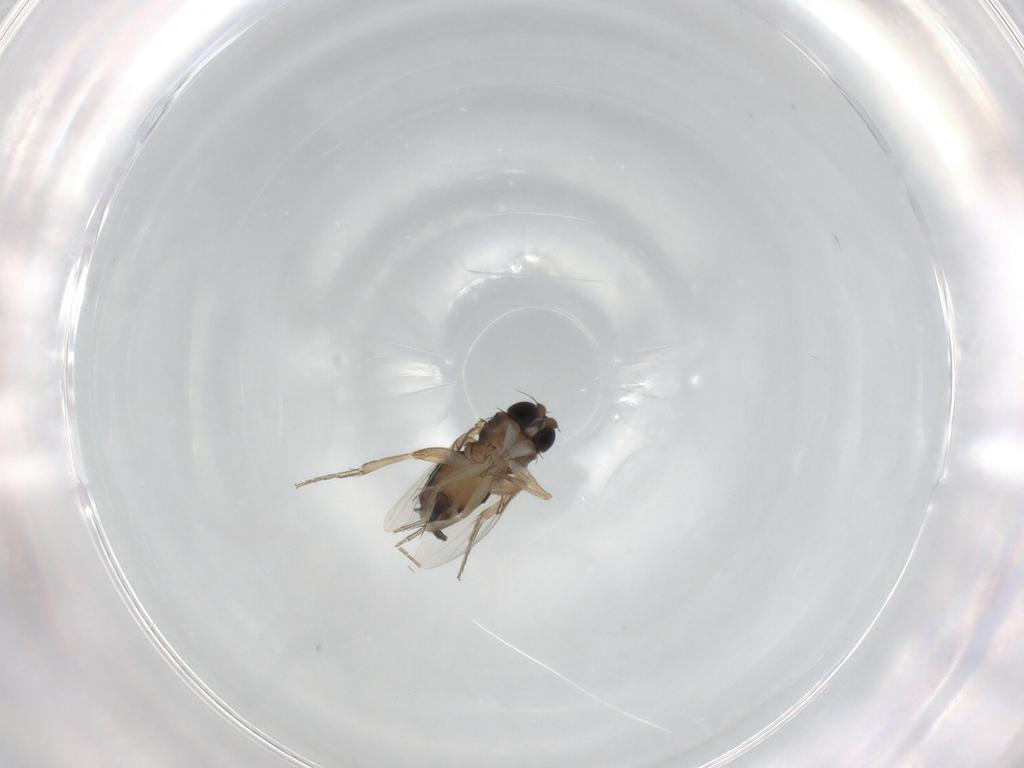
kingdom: Animalia
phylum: Arthropoda
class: Insecta
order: Diptera
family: Phoridae
